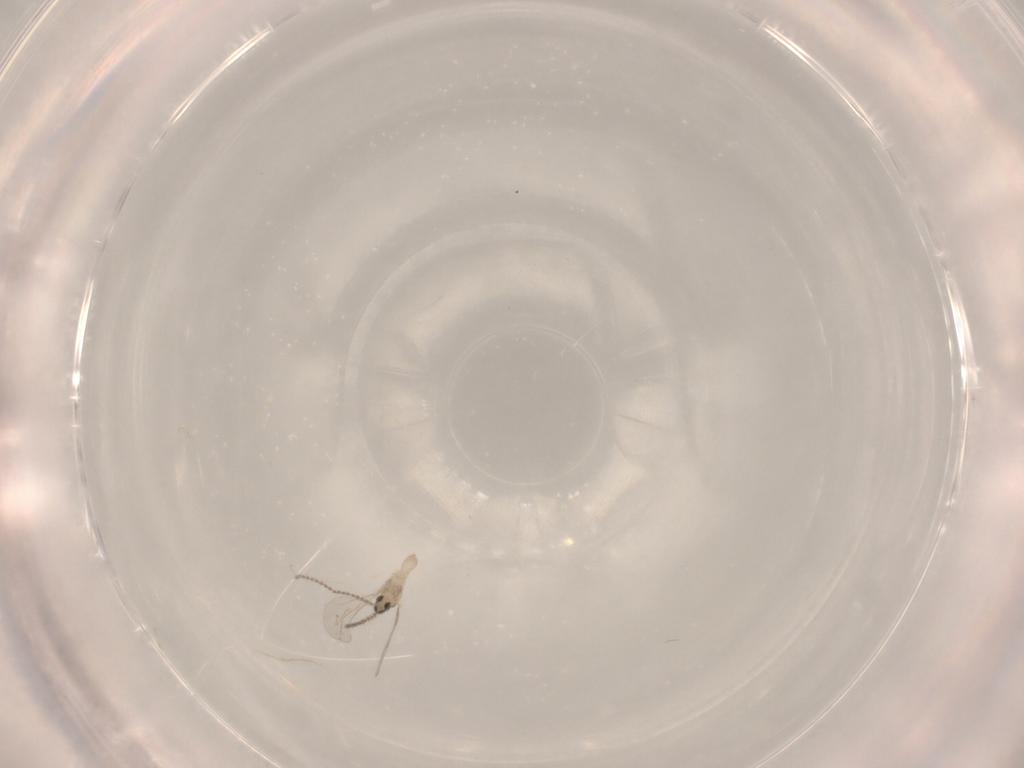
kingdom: Animalia
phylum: Arthropoda
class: Insecta
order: Diptera
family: Cecidomyiidae
